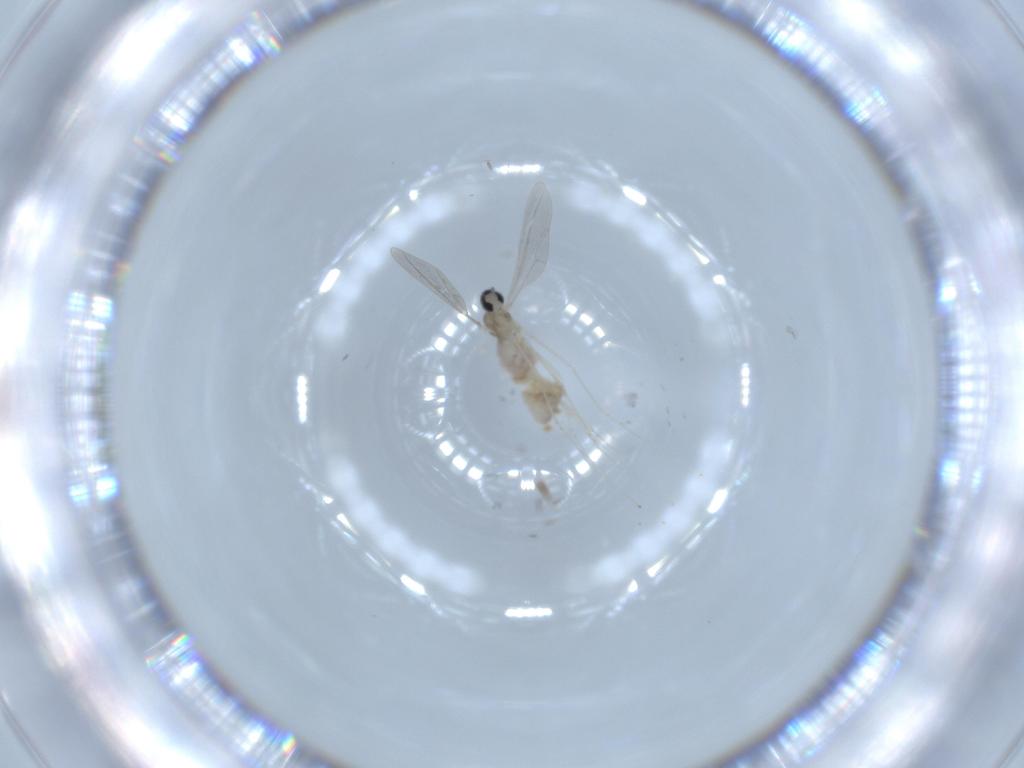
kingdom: Animalia
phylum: Arthropoda
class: Insecta
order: Diptera
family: Cecidomyiidae
